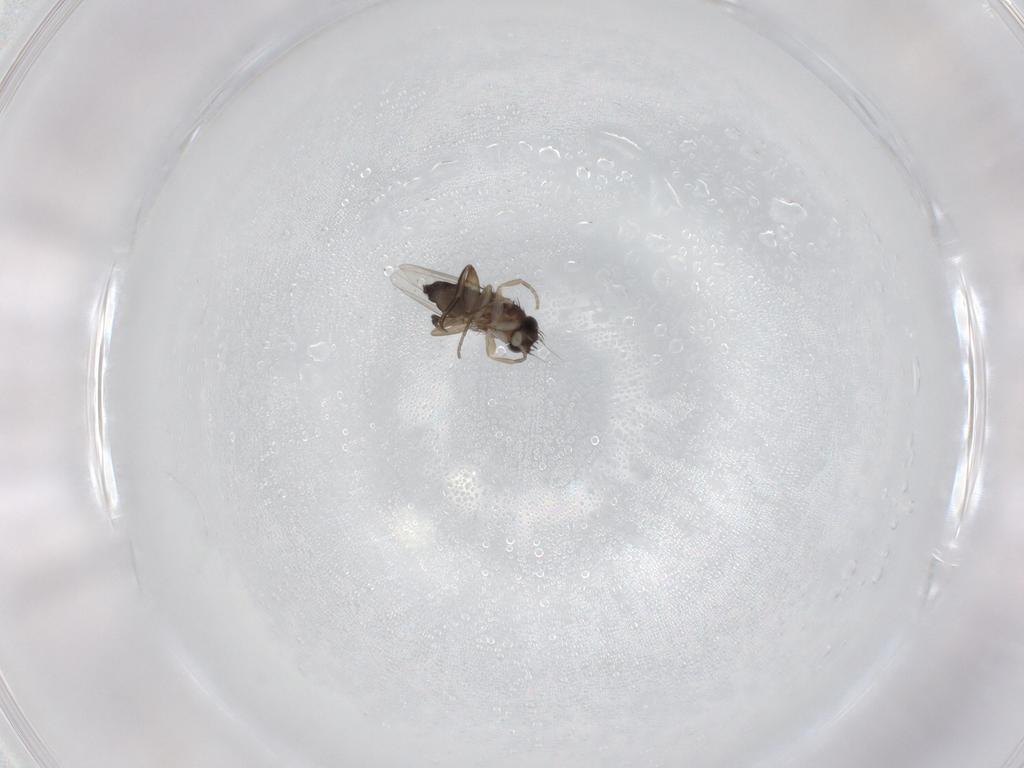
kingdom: Animalia
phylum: Arthropoda
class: Insecta
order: Diptera
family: Phoridae
